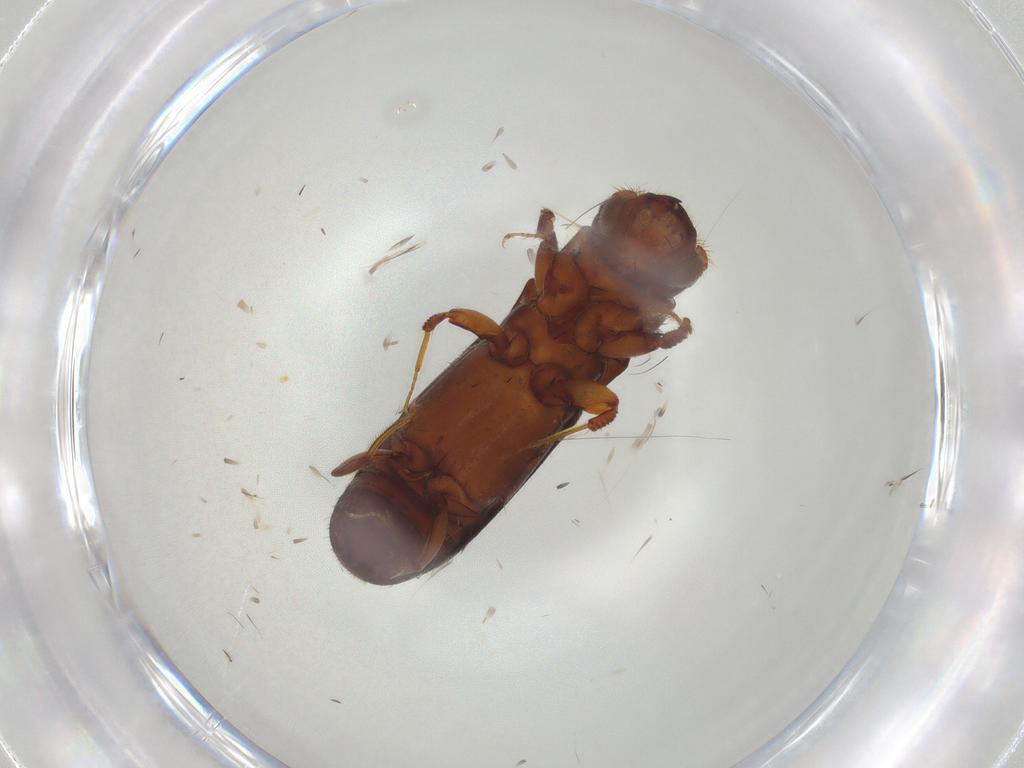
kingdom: Animalia
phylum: Arthropoda
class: Insecta
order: Coleoptera
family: Curculionidae
